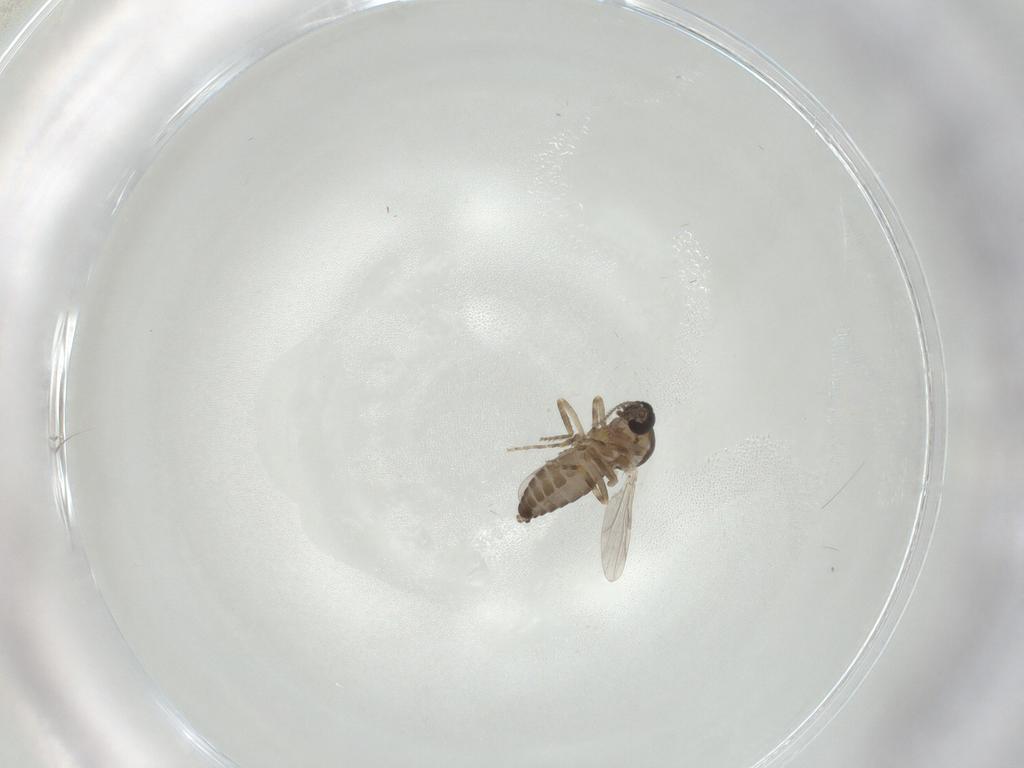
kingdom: Animalia
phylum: Arthropoda
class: Insecta
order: Diptera
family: Ceratopogonidae
